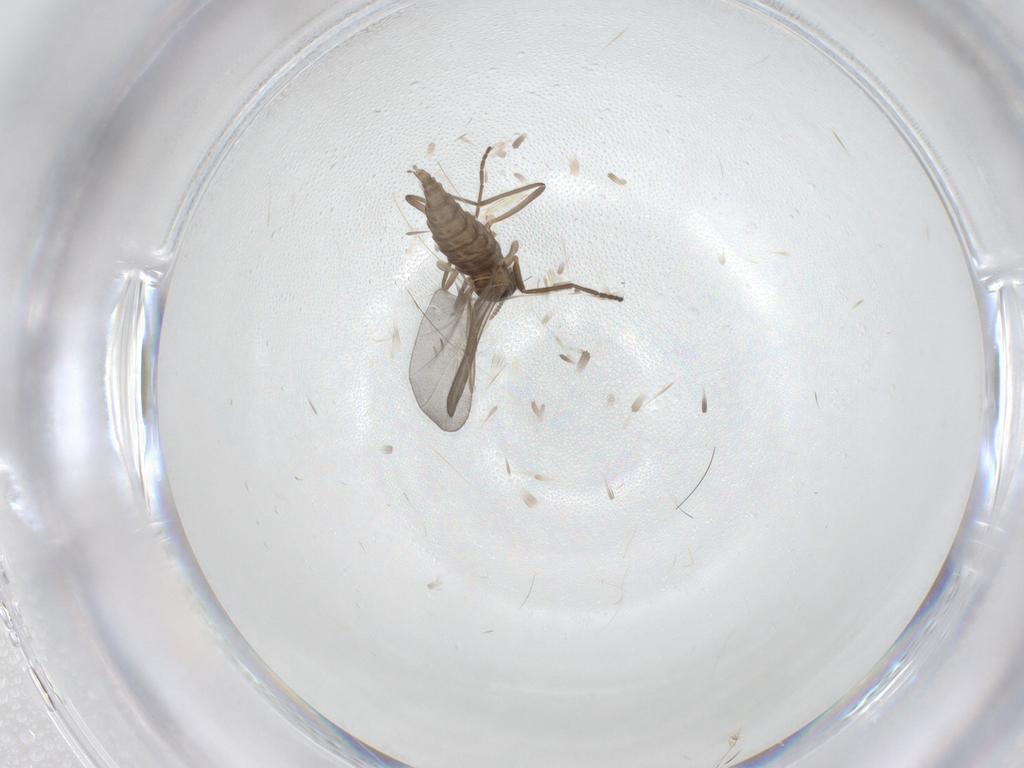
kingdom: Animalia
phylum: Arthropoda
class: Insecta
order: Diptera
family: Cecidomyiidae
